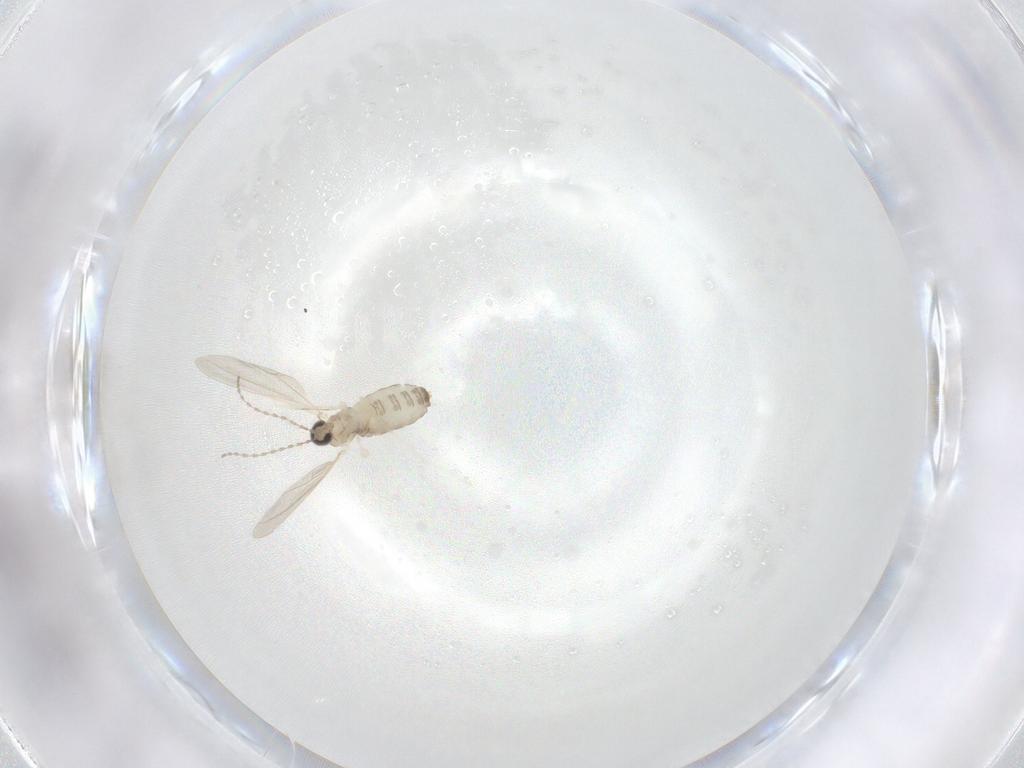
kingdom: Animalia
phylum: Arthropoda
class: Insecta
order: Diptera
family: Cecidomyiidae
